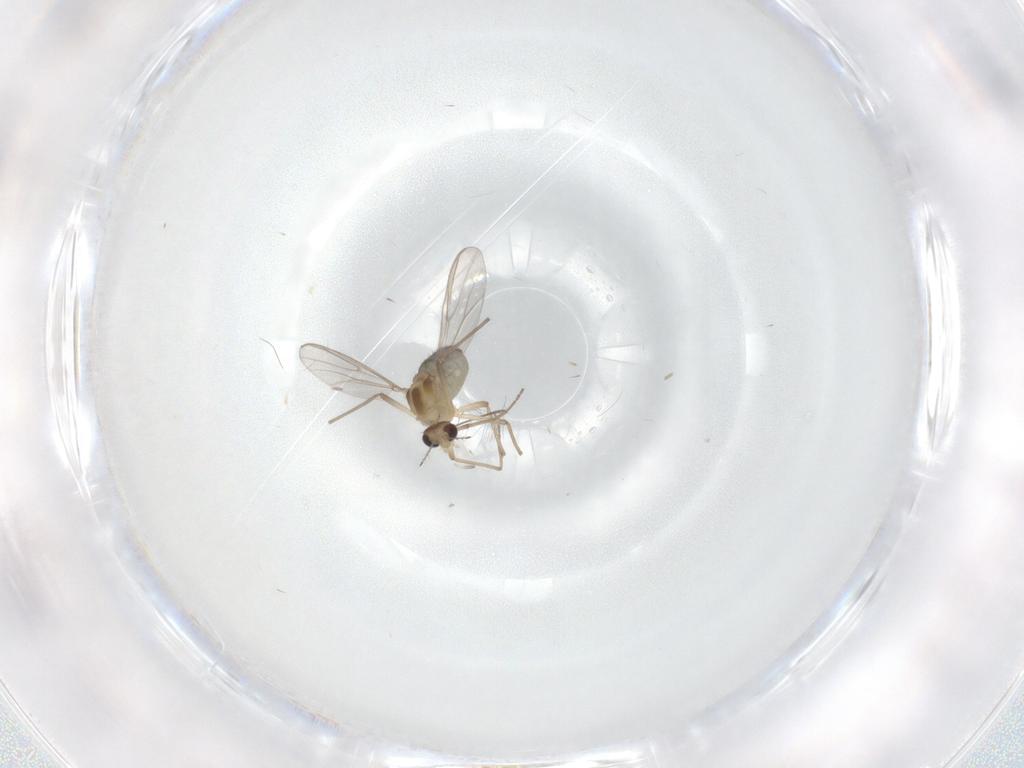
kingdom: Animalia
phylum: Arthropoda
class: Insecta
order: Diptera
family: Chironomidae
